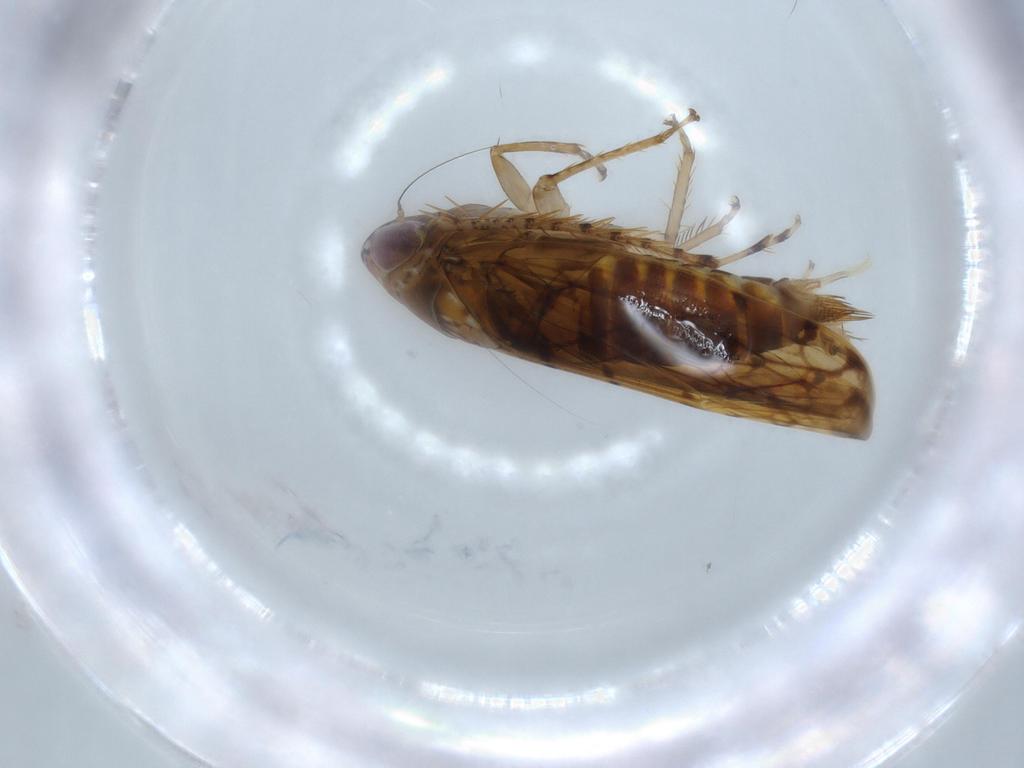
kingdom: Animalia
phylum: Arthropoda
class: Insecta
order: Hemiptera
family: Cicadellidae
